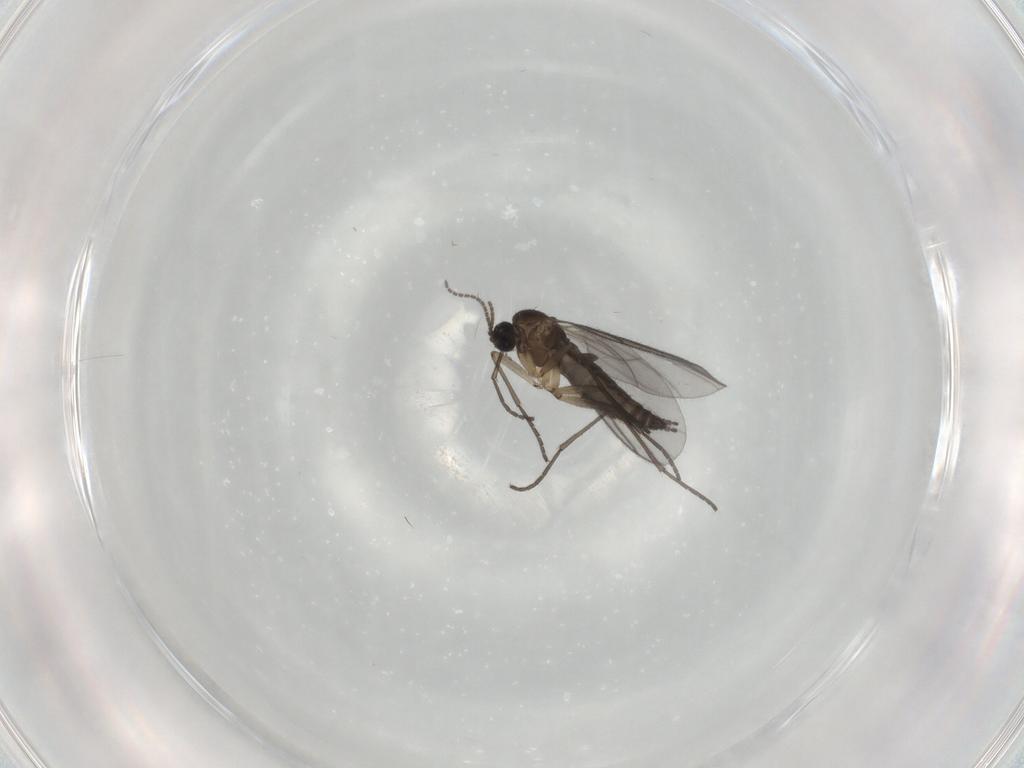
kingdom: Animalia
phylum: Arthropoda
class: Insecta
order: Diptera
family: Sciaridae
